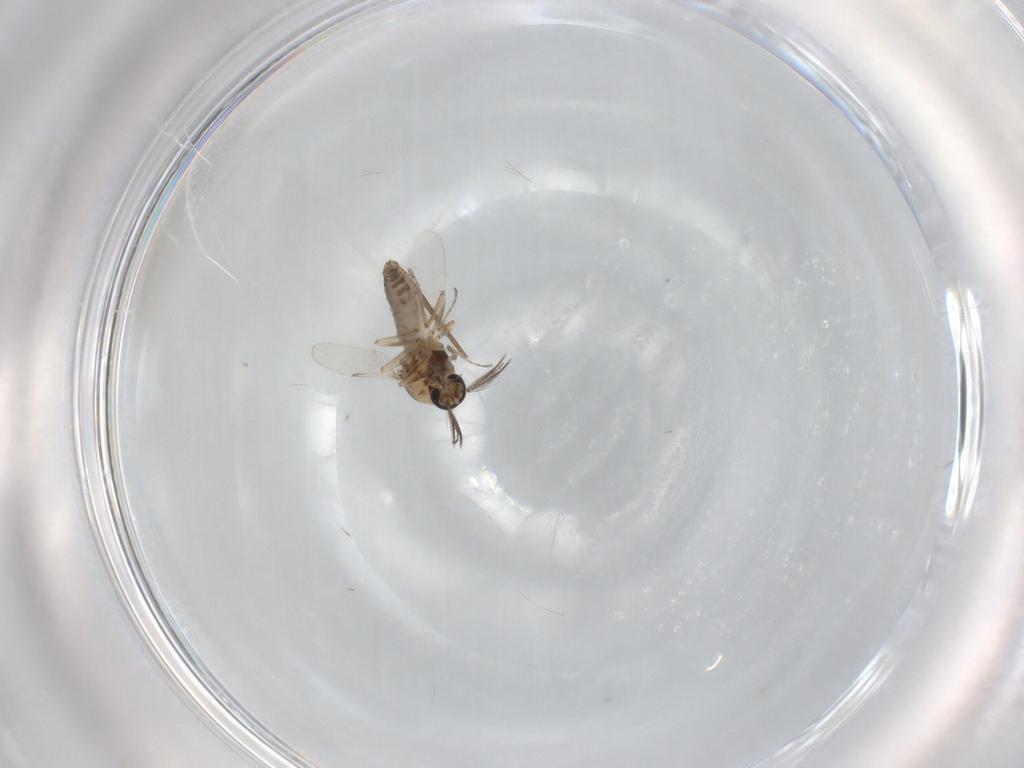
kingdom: Animalia
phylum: Arthropoda
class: Insecta
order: Diptera
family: Ceratopogonidae
